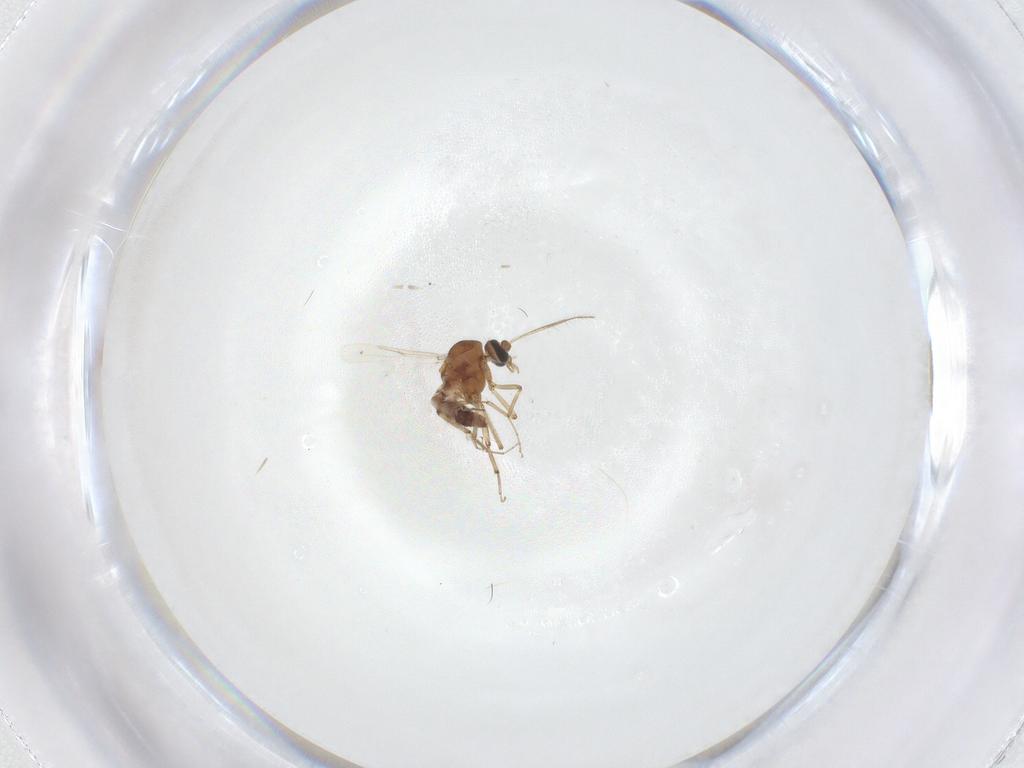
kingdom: Animalia
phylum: Arthropoda
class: Insecta
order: Diptera
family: Ceratopogonidae
